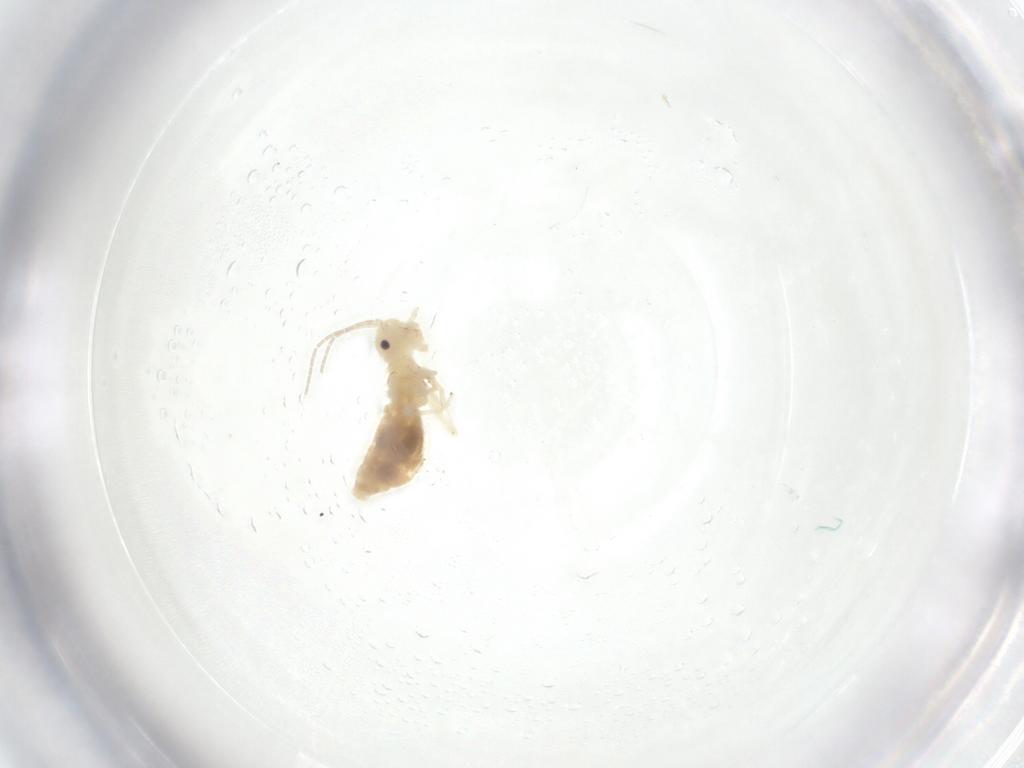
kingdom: Animalia
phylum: Arthropoda
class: Insecta
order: Psocodea
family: Stenopsocidae
